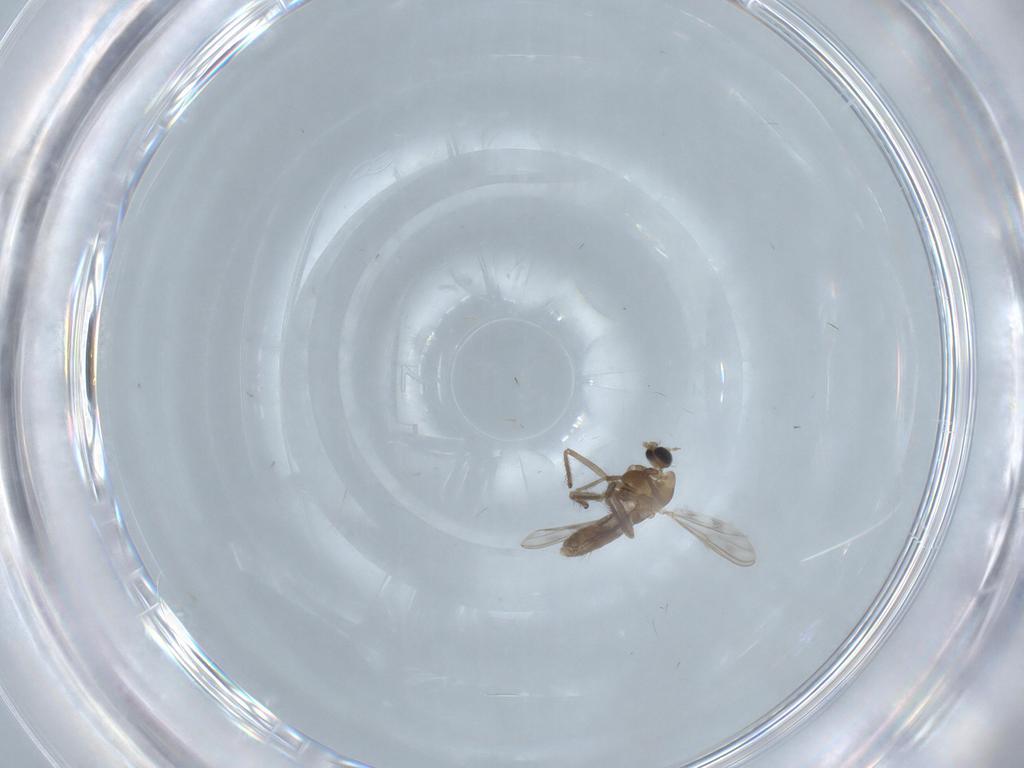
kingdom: Animalia
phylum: Arthropoda
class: Insecta
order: Diptera
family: Chironomidae
